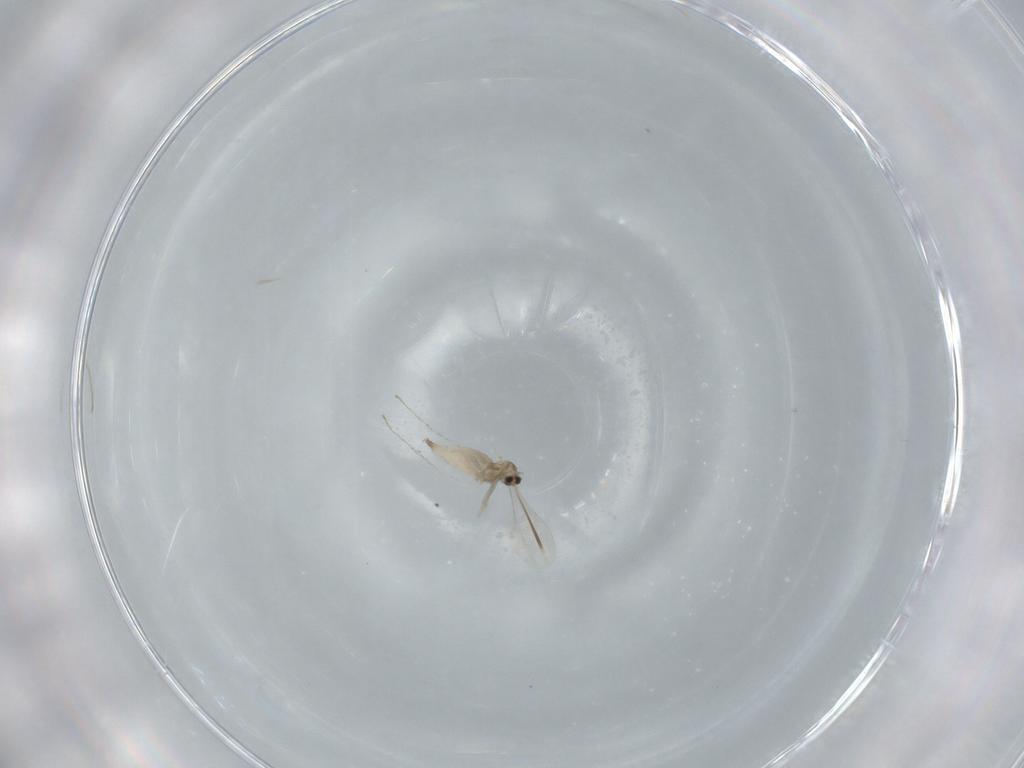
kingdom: Animalia
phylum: Arthropoda
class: Insecta
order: Diptera
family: Cecidomyiidae
